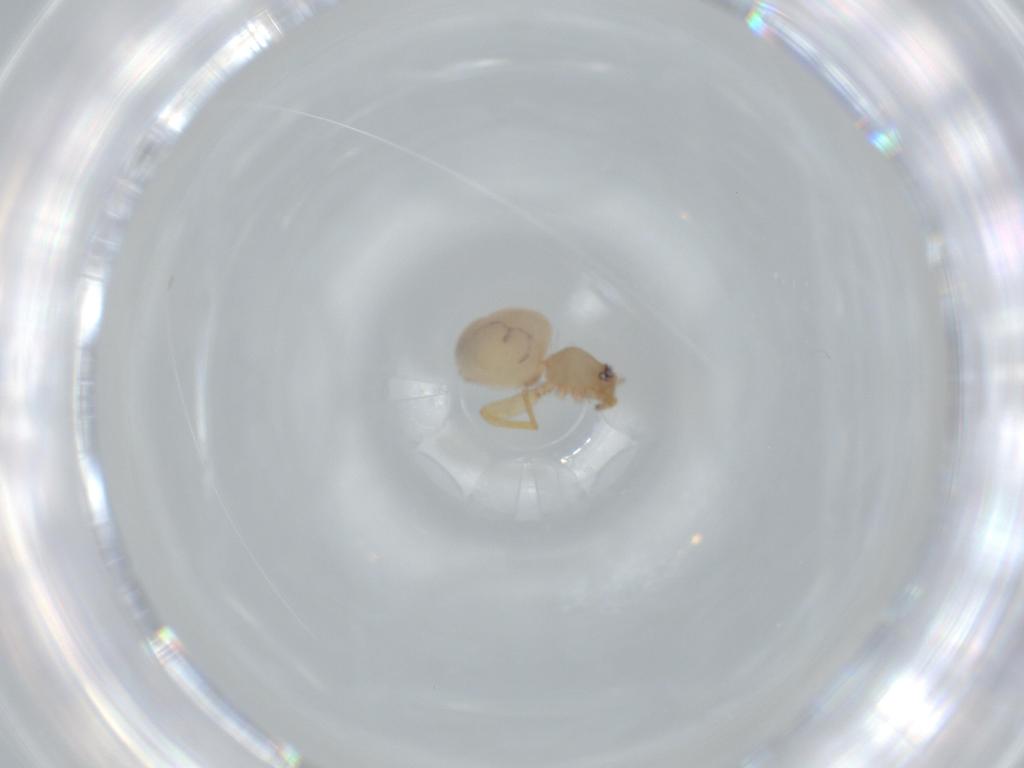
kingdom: Animalia
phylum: Arthropoda
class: Arachnida
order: Araneae
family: Oonopidae
